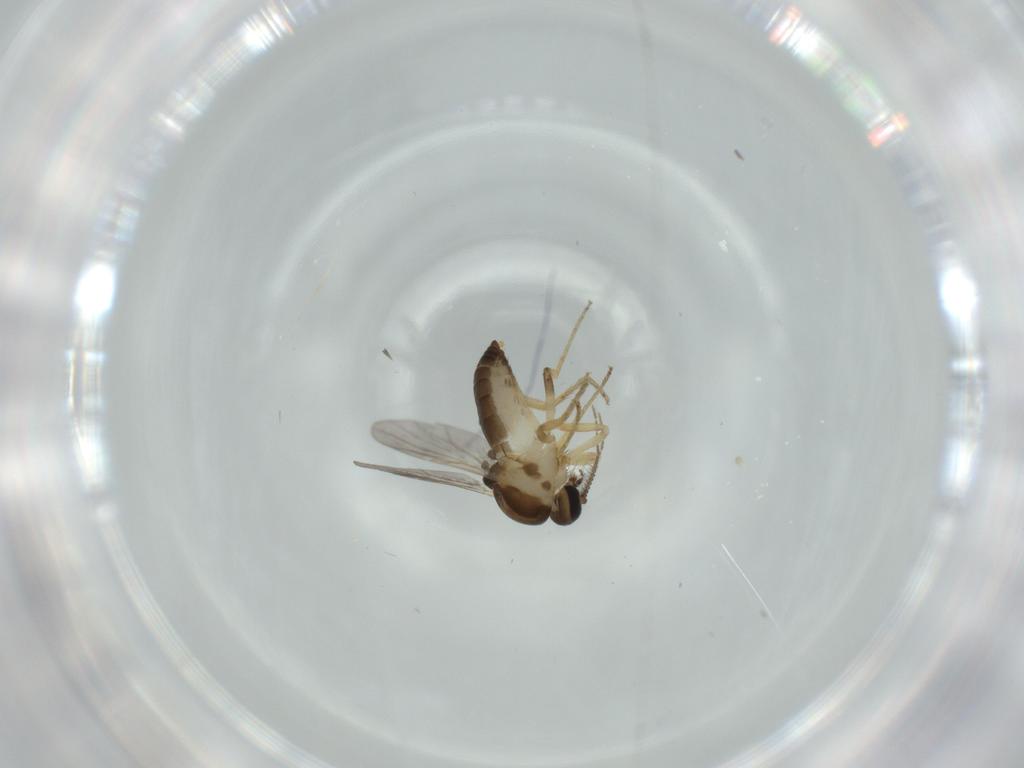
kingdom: Animalia
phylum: Arthropoda
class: Insecta
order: Diptera
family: Ceratopogonidae
